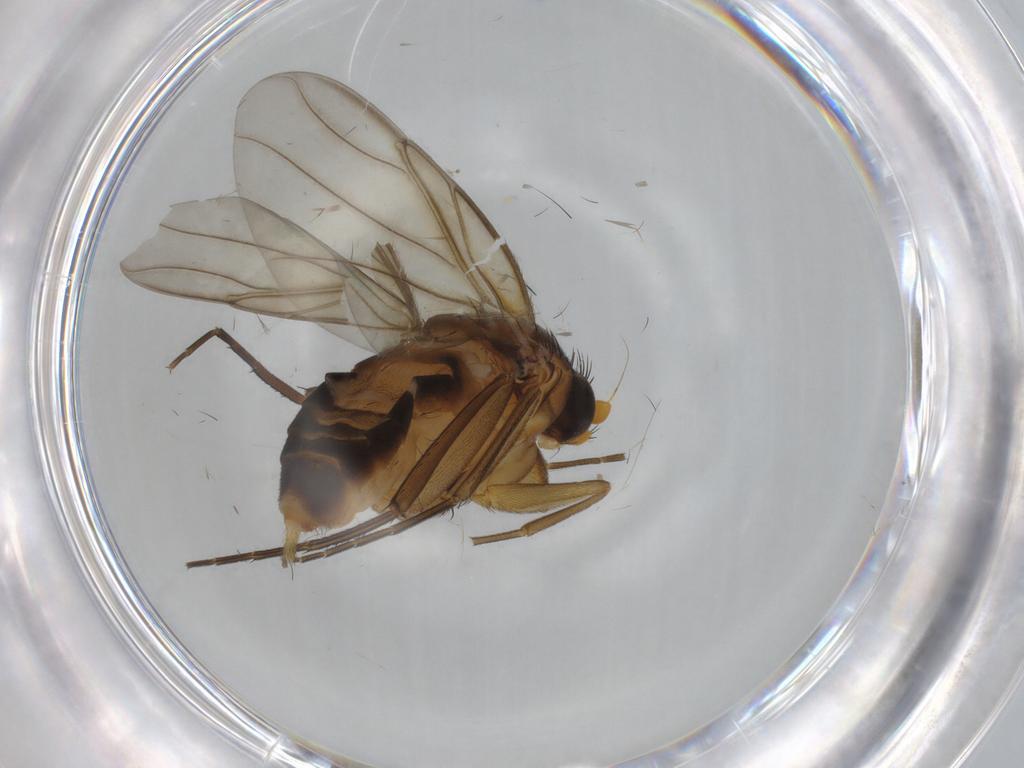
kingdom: Animalia
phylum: Arthropoda
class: Insecta
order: Diptera
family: Phoridae
